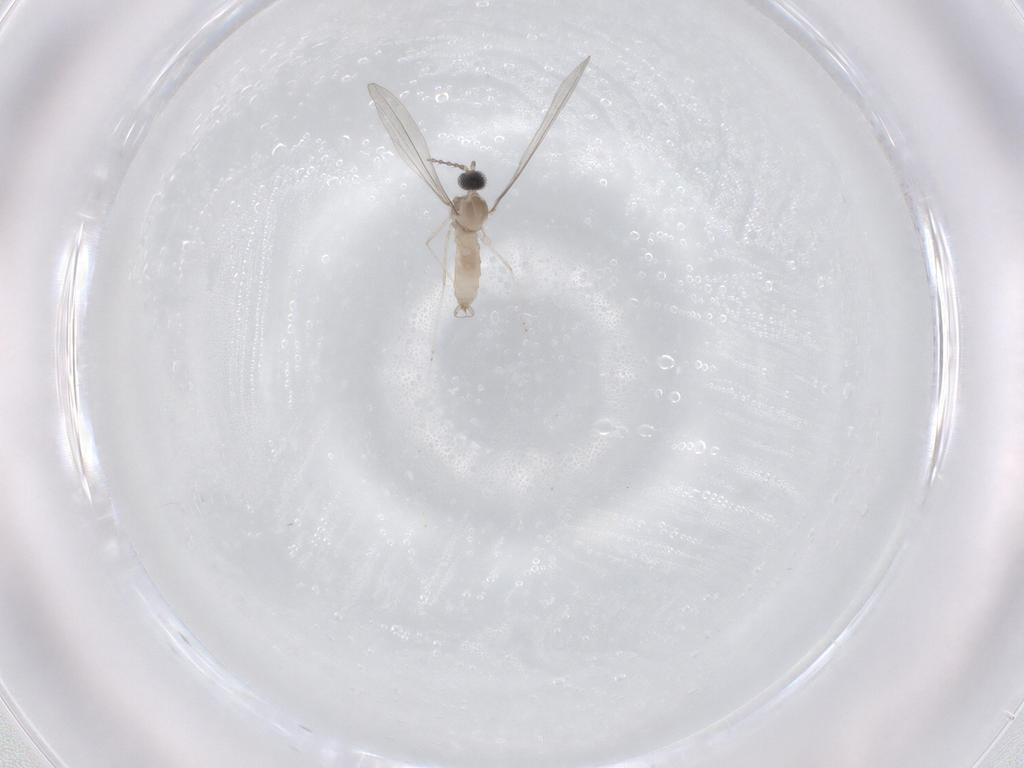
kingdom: Animalia
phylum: Arthropoda
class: Insecta
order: Diptera
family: Cecidomyiidae
